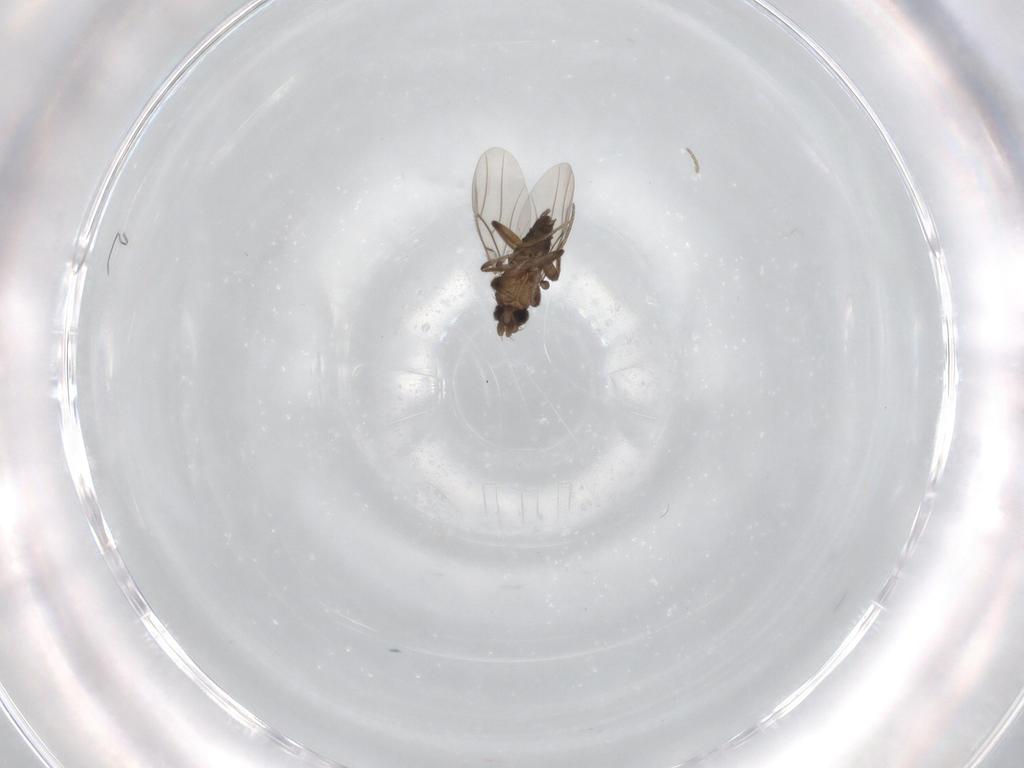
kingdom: Animalia
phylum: Arthropoda
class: Insecta
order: Diptera
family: Phoridae
